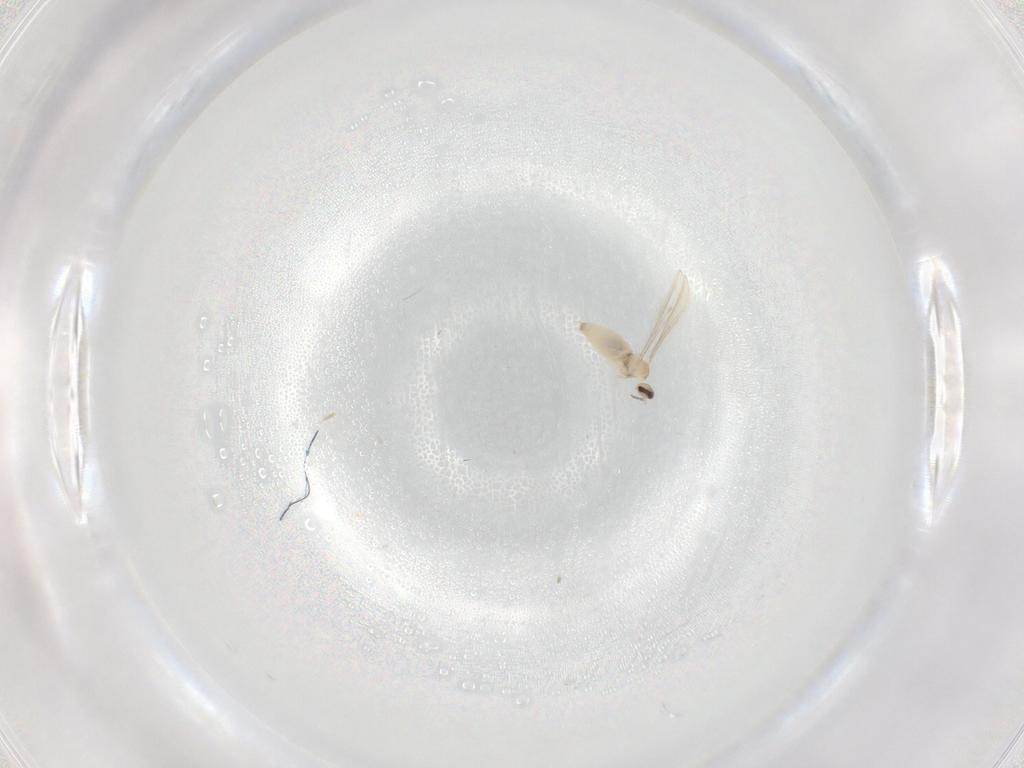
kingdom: Animalia
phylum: Arthropoda
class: Insecta
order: Diptera
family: Cecidomyiidae
